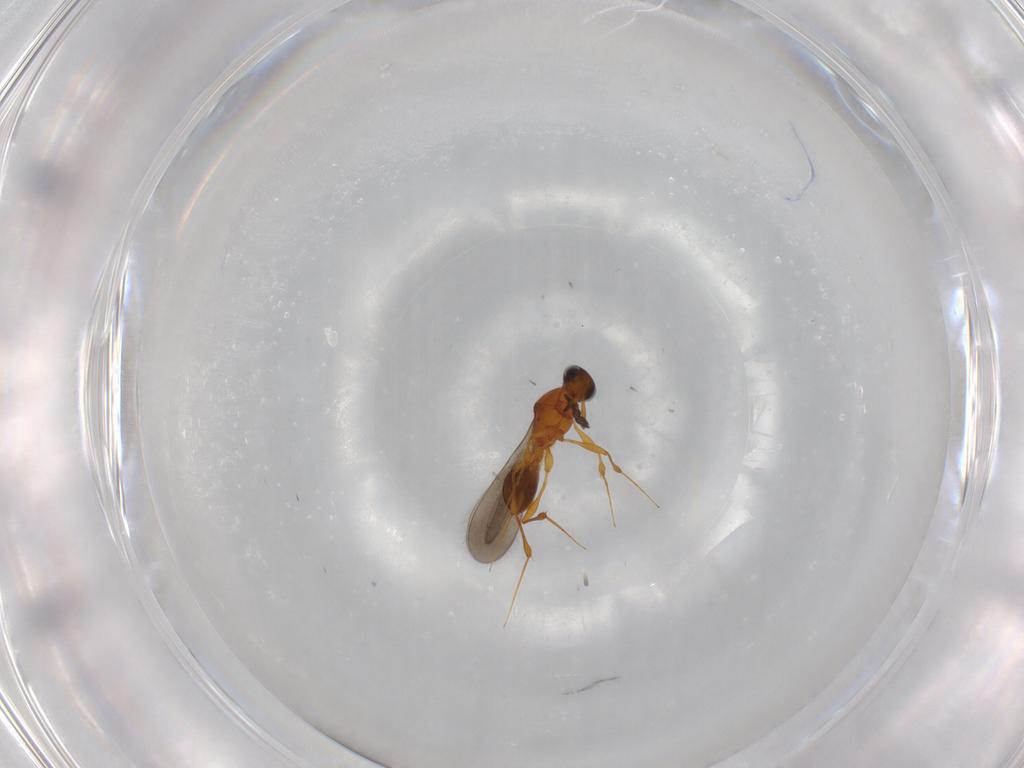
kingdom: Animalia
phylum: Arthropoda
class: Insecta
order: Hymenoptera
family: Platygastridae
